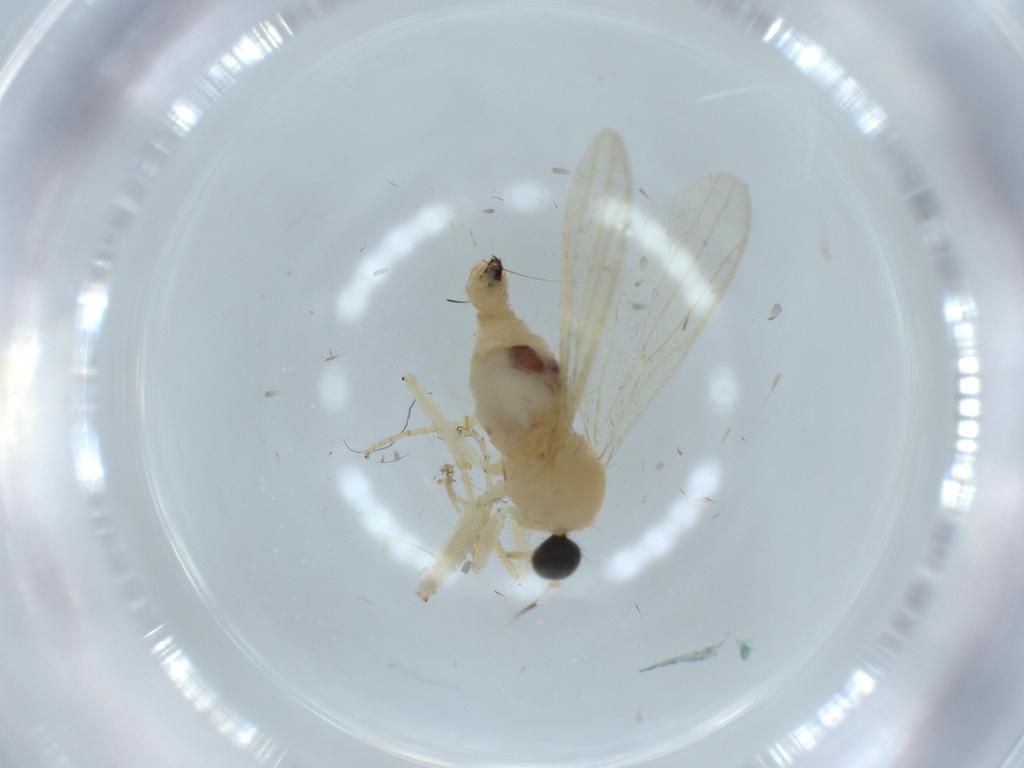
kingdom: Animalia
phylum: Arthropoda
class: Insecta
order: Diptera
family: Hybotidae
